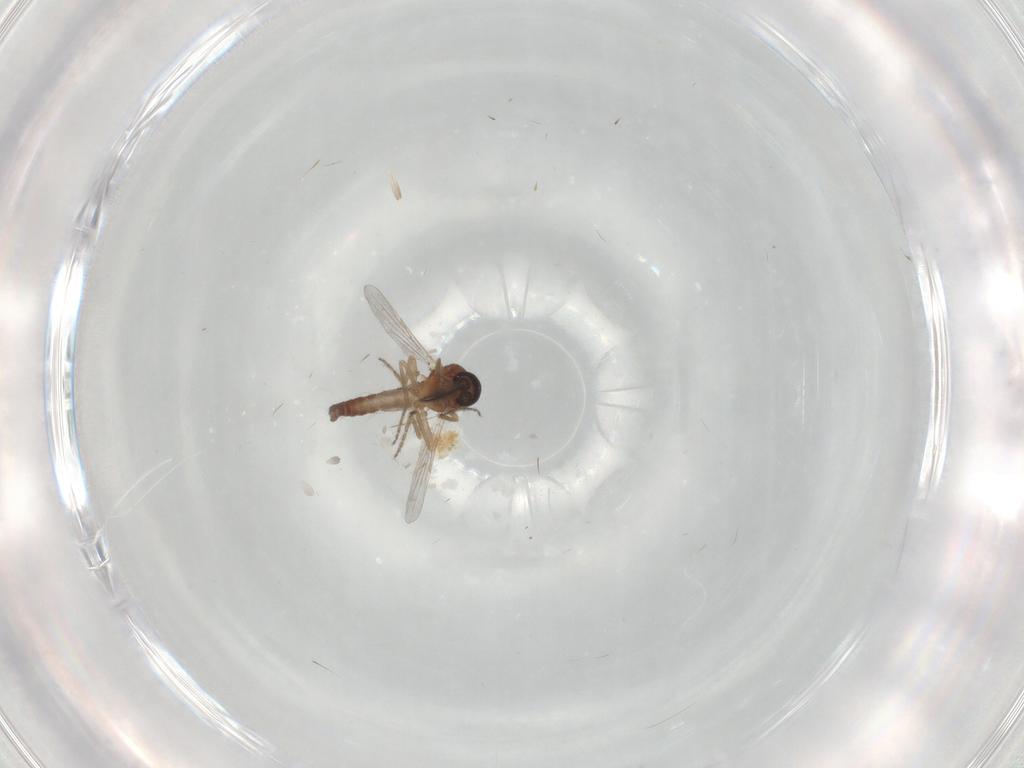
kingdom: Animalia
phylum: Arthropoda
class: Insecta
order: Diptera
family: Ceratopogonidae
